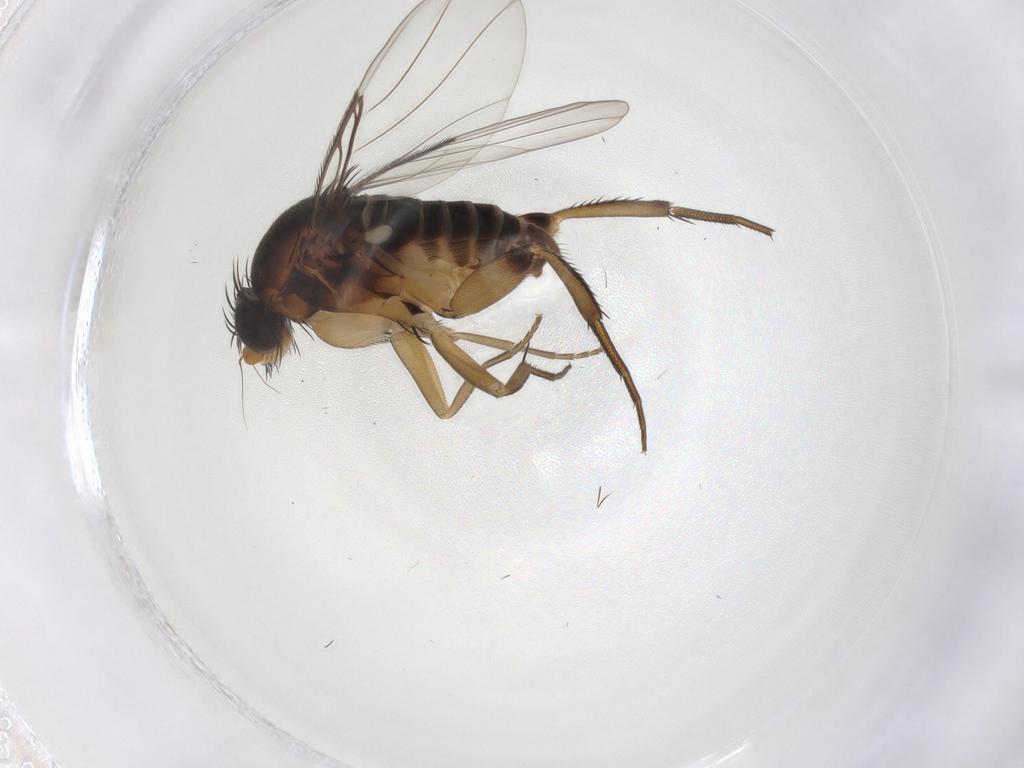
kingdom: Animalia
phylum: Arthropoda
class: Insecta
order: Diptera
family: Phoridae
